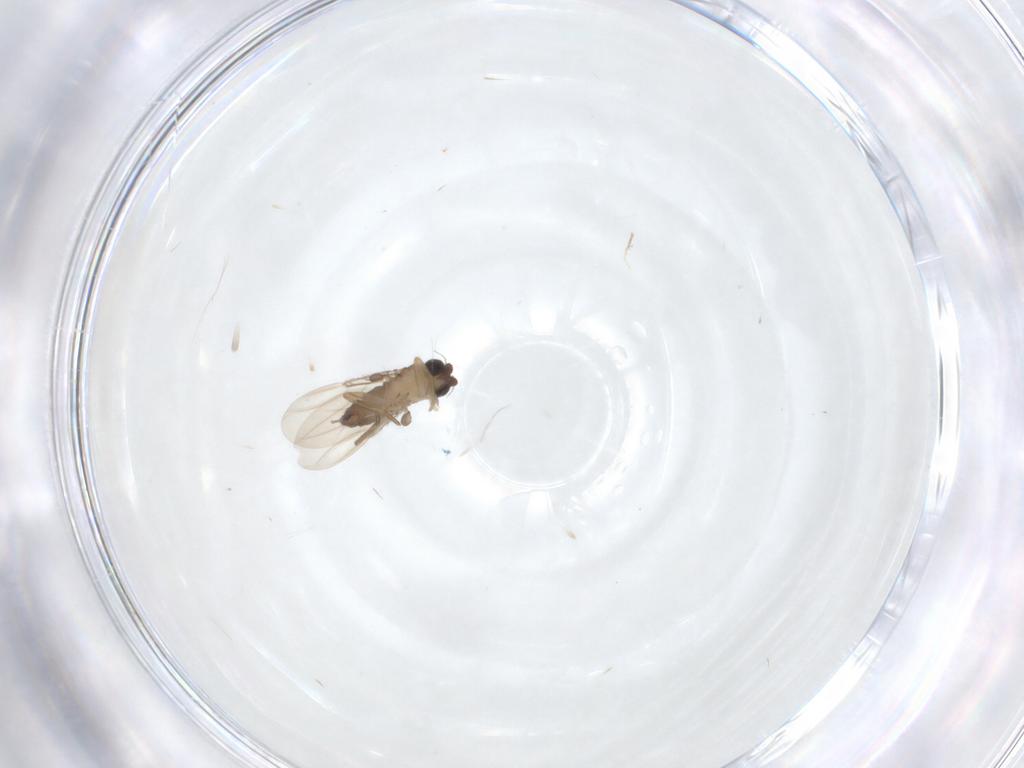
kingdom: Animalia
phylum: Arthropoda
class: Insecta
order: Diptera
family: Phoridae
